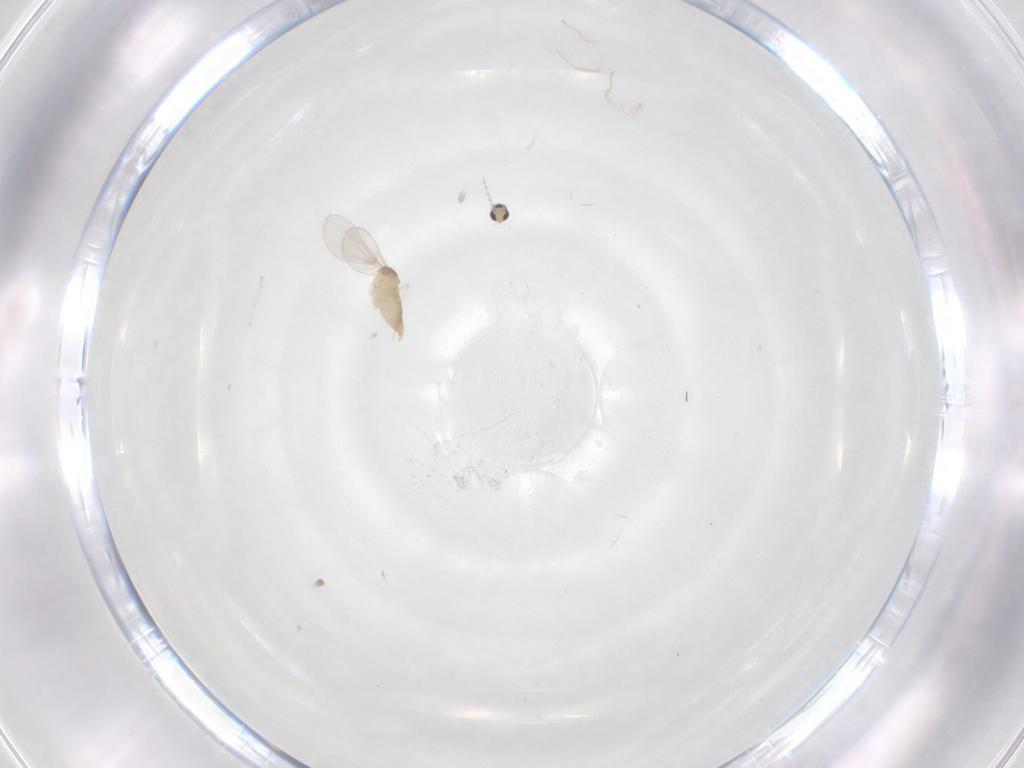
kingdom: Animalia
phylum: Arthropoda
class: Insecta
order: Diptera
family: Cecidomyiidae
